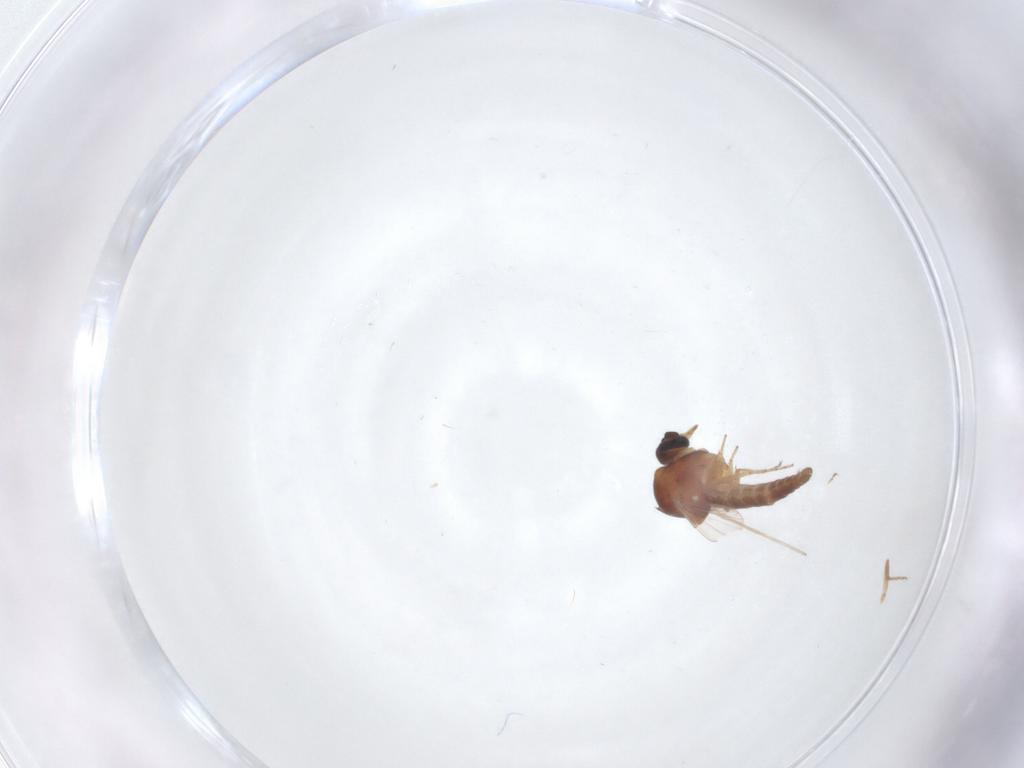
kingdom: Animalia
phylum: Arthropoda
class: Insecta
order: Diptera
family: Ceratopogonidae
